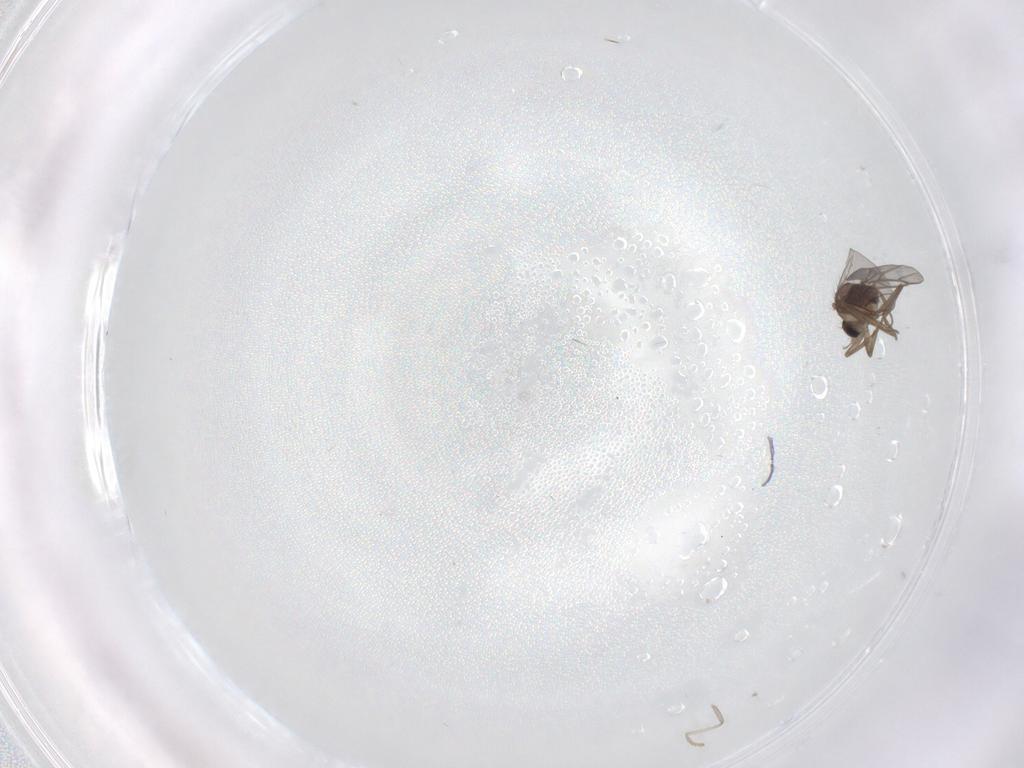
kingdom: Animalia
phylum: Arthropoda
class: Insecta
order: Diptera
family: Cecidomyiidae
